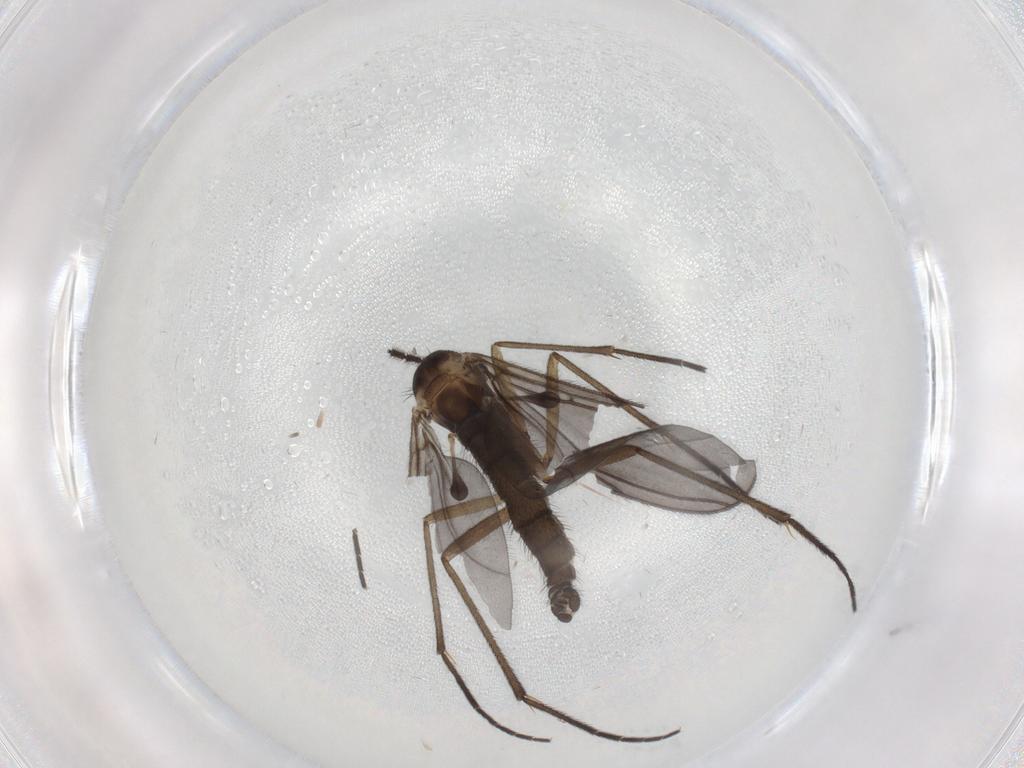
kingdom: Animalia
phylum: Arthropoda
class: Insecta
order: Diptera
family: Sciaridae
